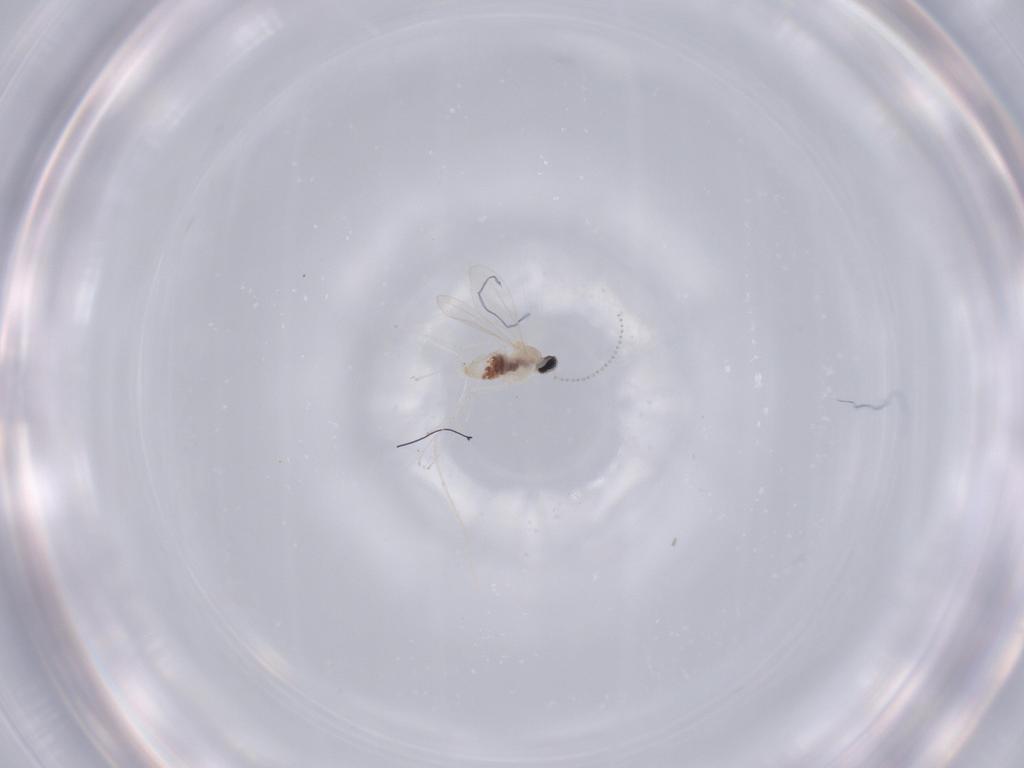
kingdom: Animalia
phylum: Arthropoda
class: Insecta
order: Diptera
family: Cecidomyiidae
